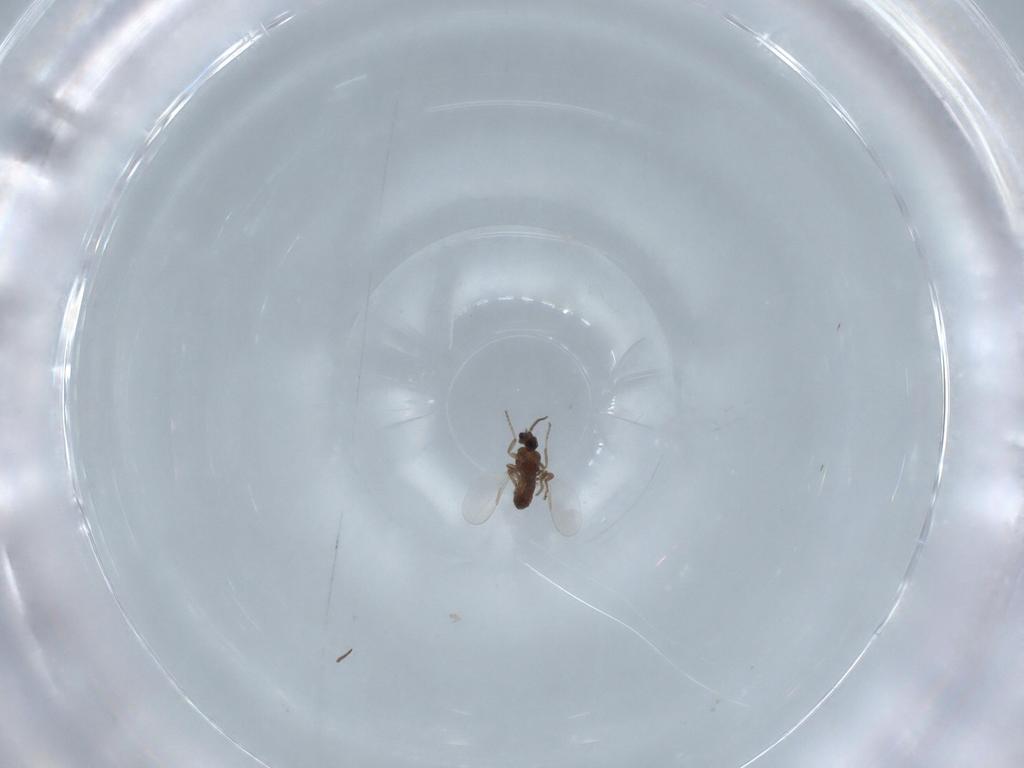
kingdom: Animalia
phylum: Arthropoda
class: Insecta
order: Diptera
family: Ceratopogonidae
